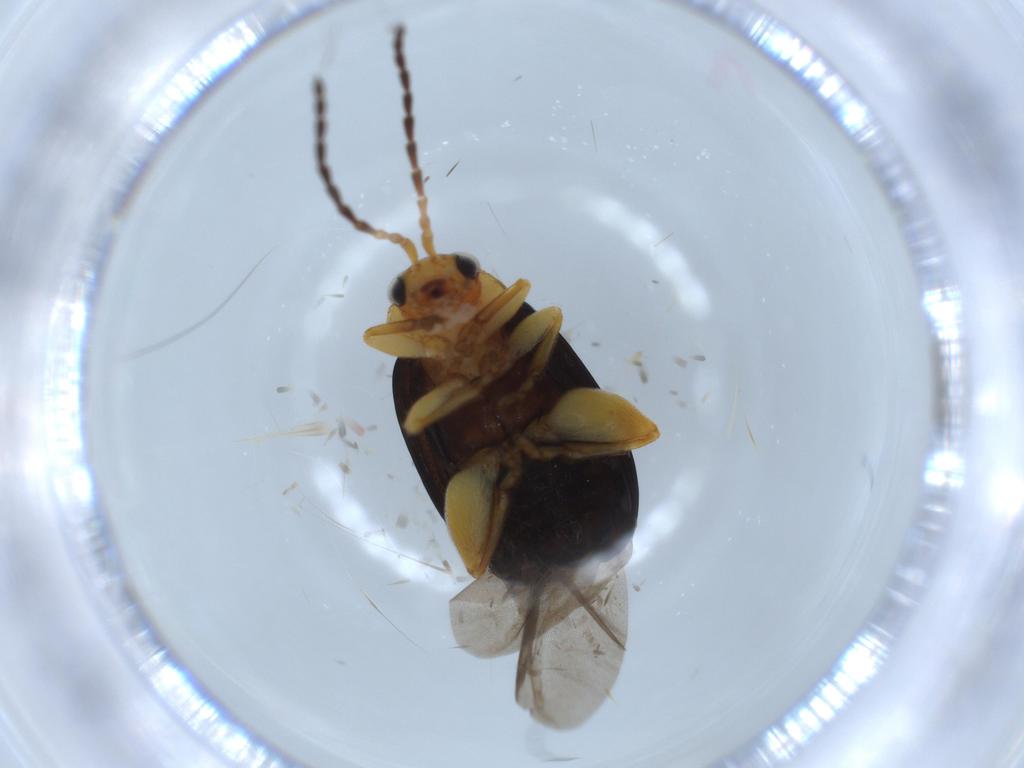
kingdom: Animalia
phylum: Arthropoda
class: Insecta
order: Coleoptera
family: Chrysomelidae
